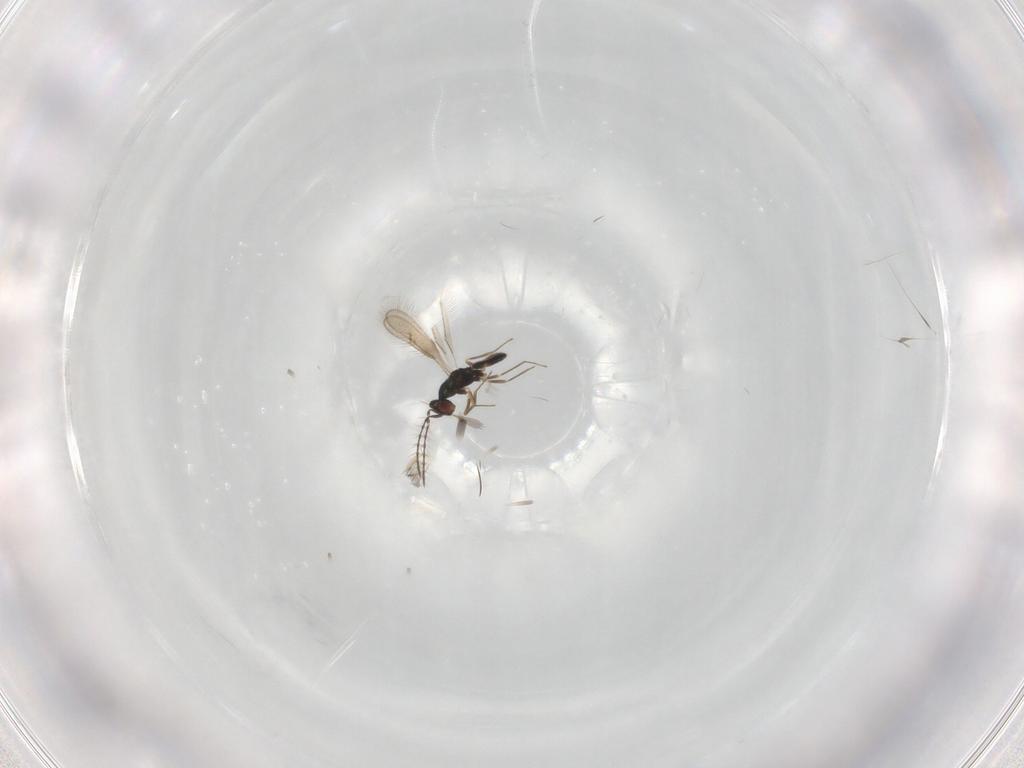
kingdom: Animalia
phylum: Arthropoda
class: Insecta
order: Hymenoptera
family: Pteromalidae
